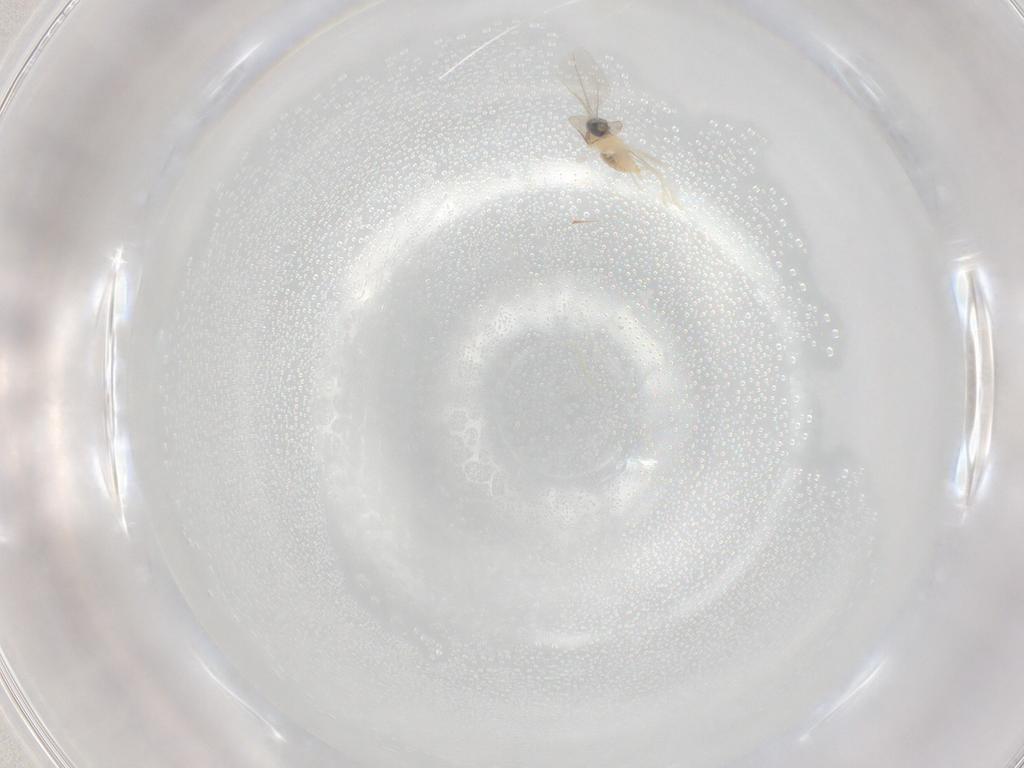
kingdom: Animalia
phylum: Arthropoda
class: Insecta
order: Diptera
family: Cecidomyiidae
